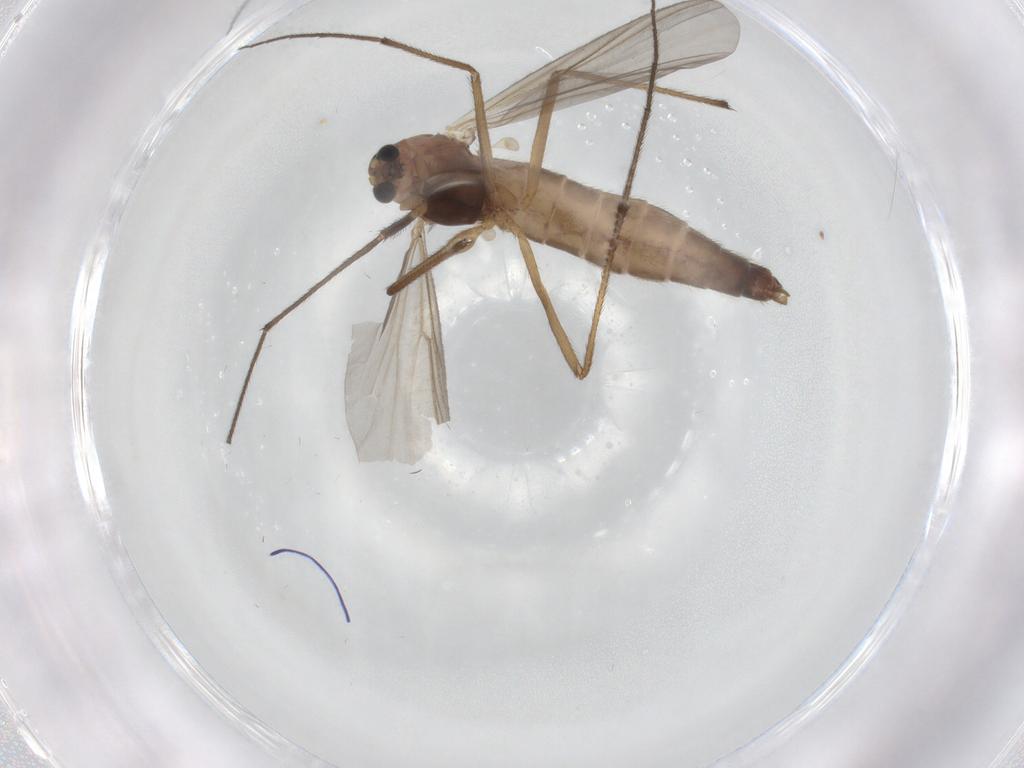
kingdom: Animalia
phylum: Arthropoda
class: Insecta
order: Diptera
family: Chironomidae
